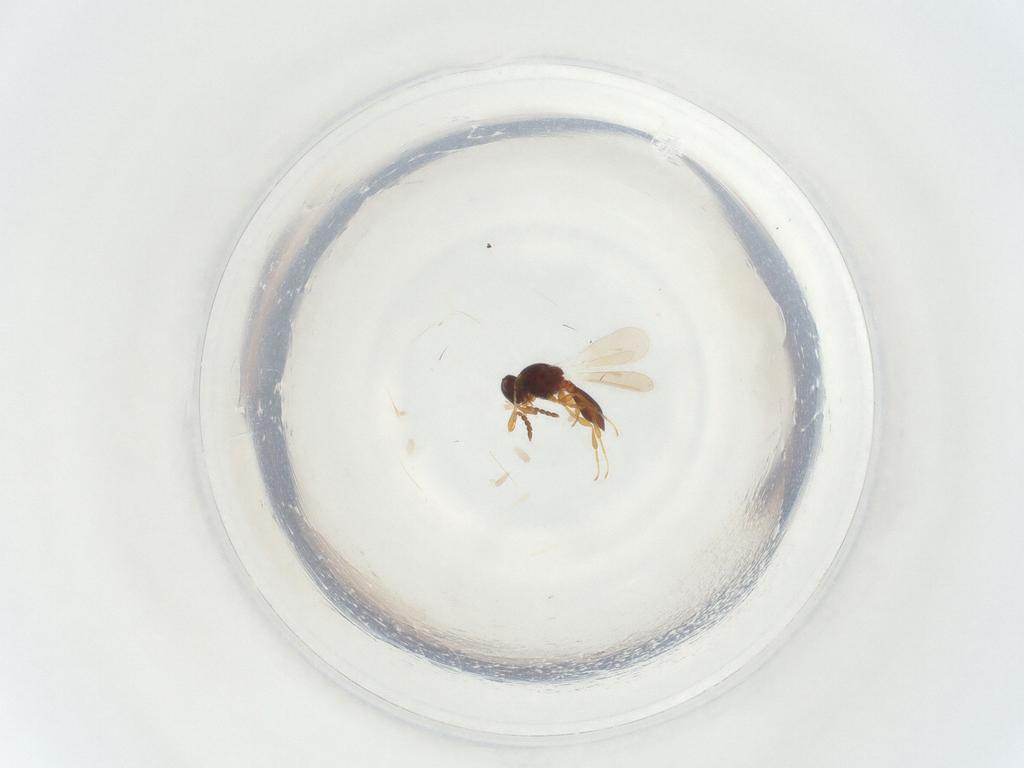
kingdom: Animalia
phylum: Arthropoda
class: Insecta
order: Hymenoptera
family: Platygastridae
